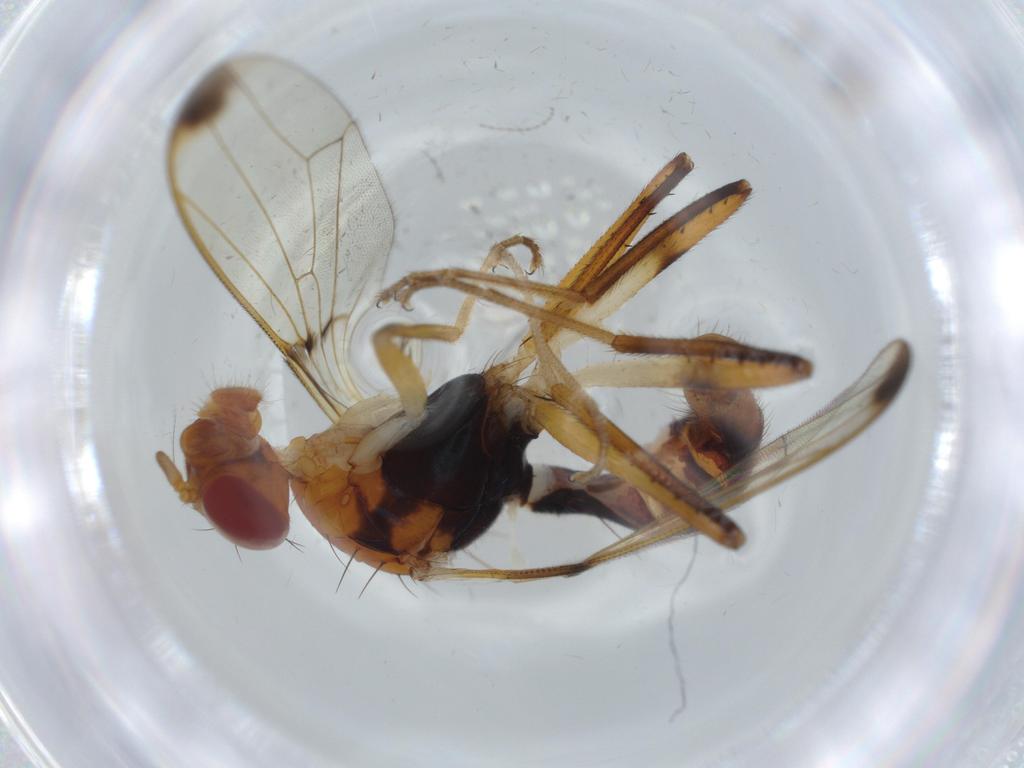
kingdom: Animalia
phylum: Arthropoda
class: Insecta
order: Diptera
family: Richardiidae
